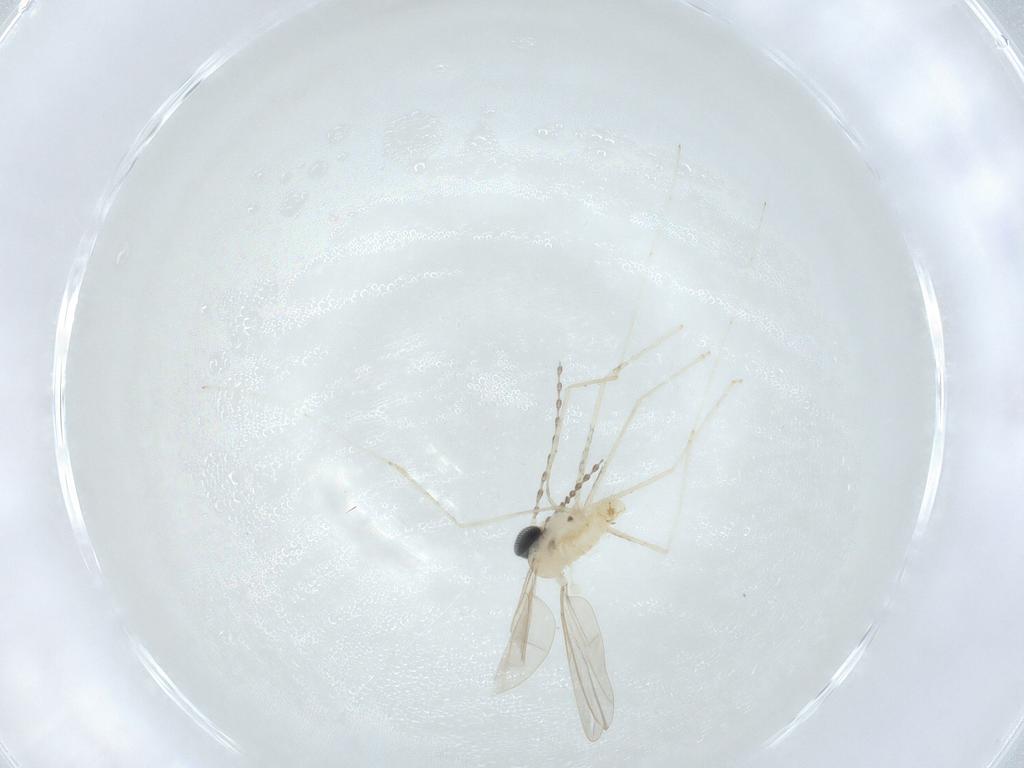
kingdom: Animalia
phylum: Arthropoda
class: Insecta
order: Diptera
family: Cecidomyiidae
